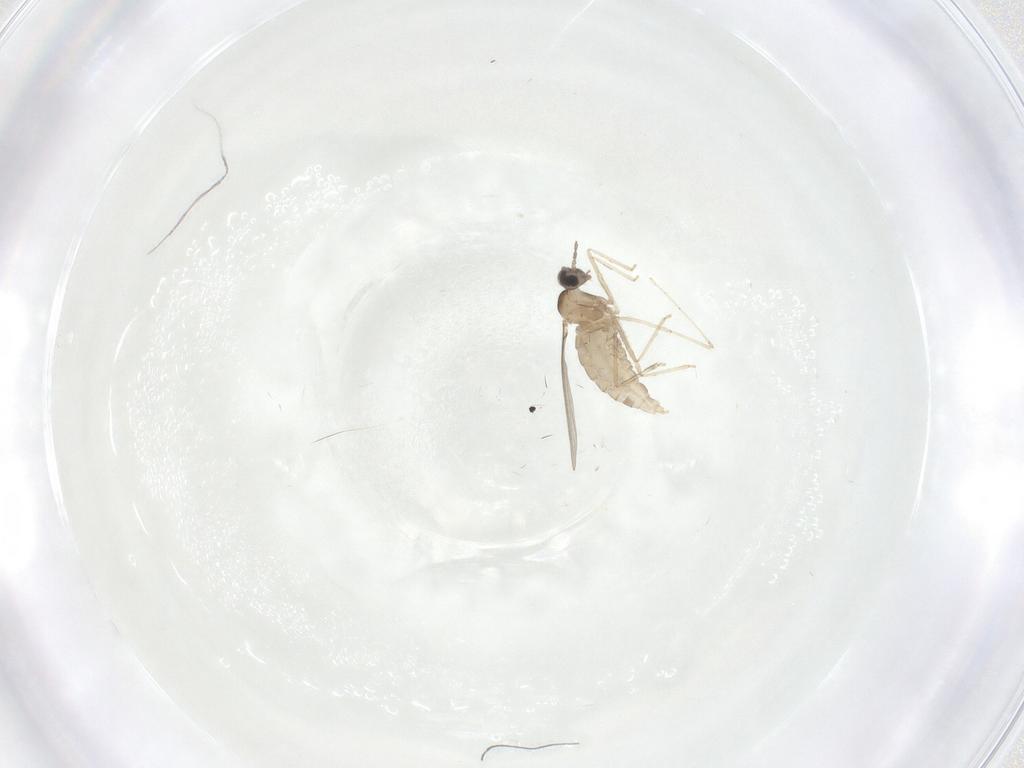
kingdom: Animalia
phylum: Arthropoda
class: Insecta
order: Diptera
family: Cecidomyiidae
